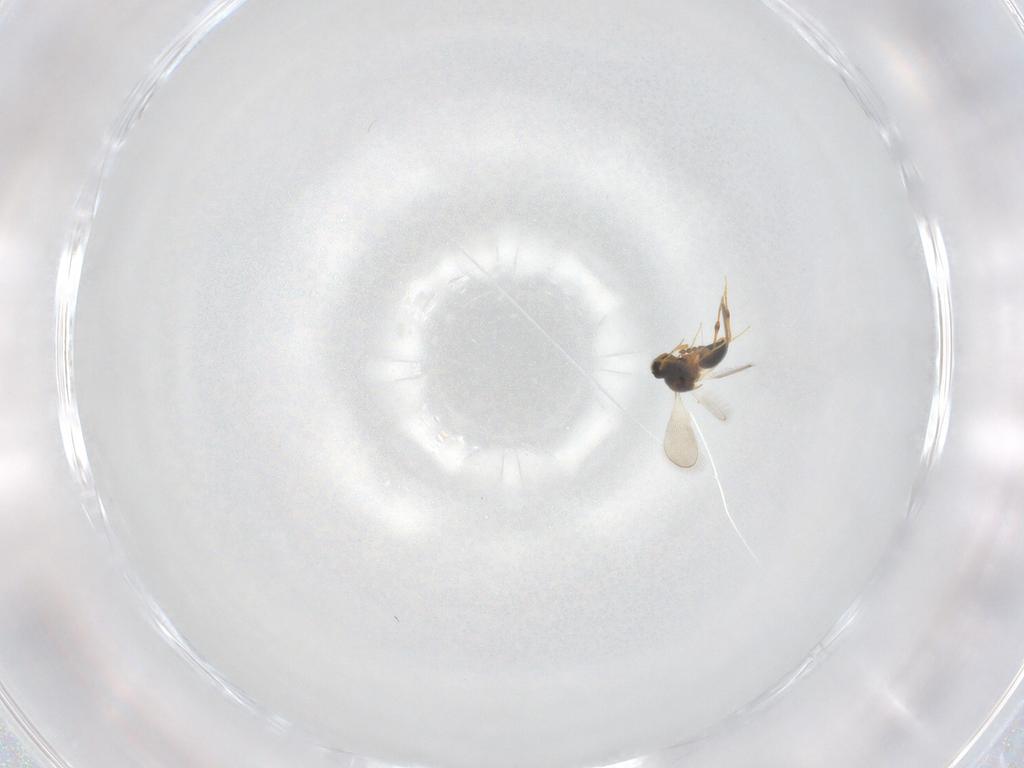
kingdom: Animalia
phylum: Arthropoda
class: Insecta
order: Hymenoptera
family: Platygastridae
